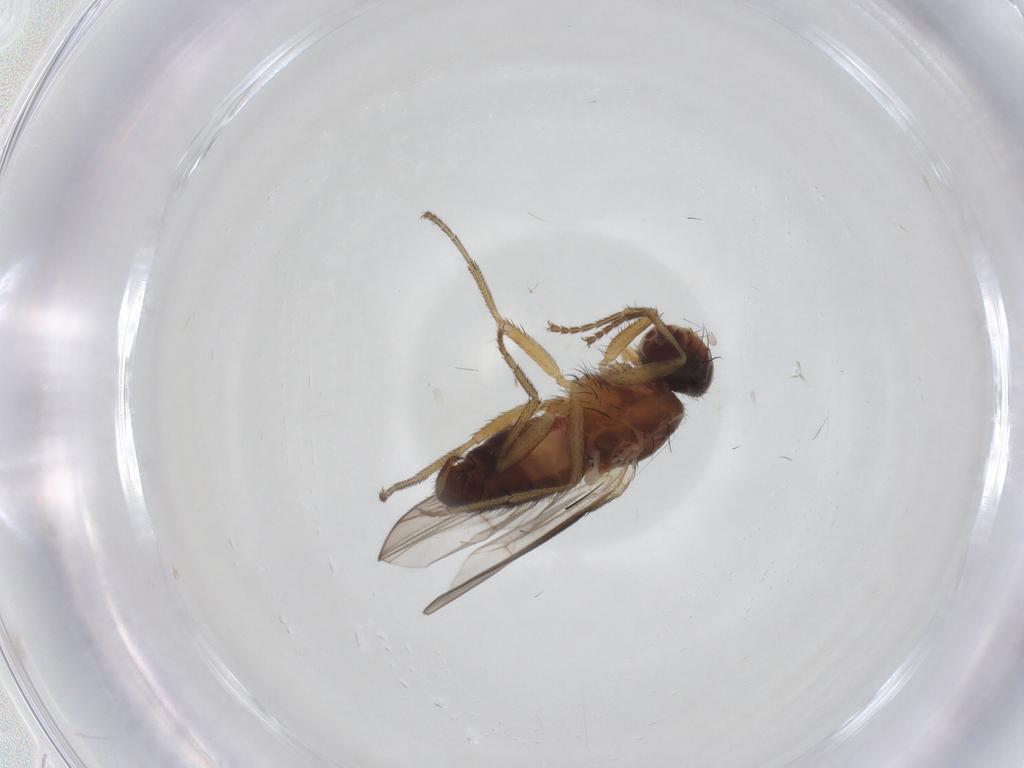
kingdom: Animalia
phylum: Arthropoda
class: Insecta
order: Diptera
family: Heleomyzidae
